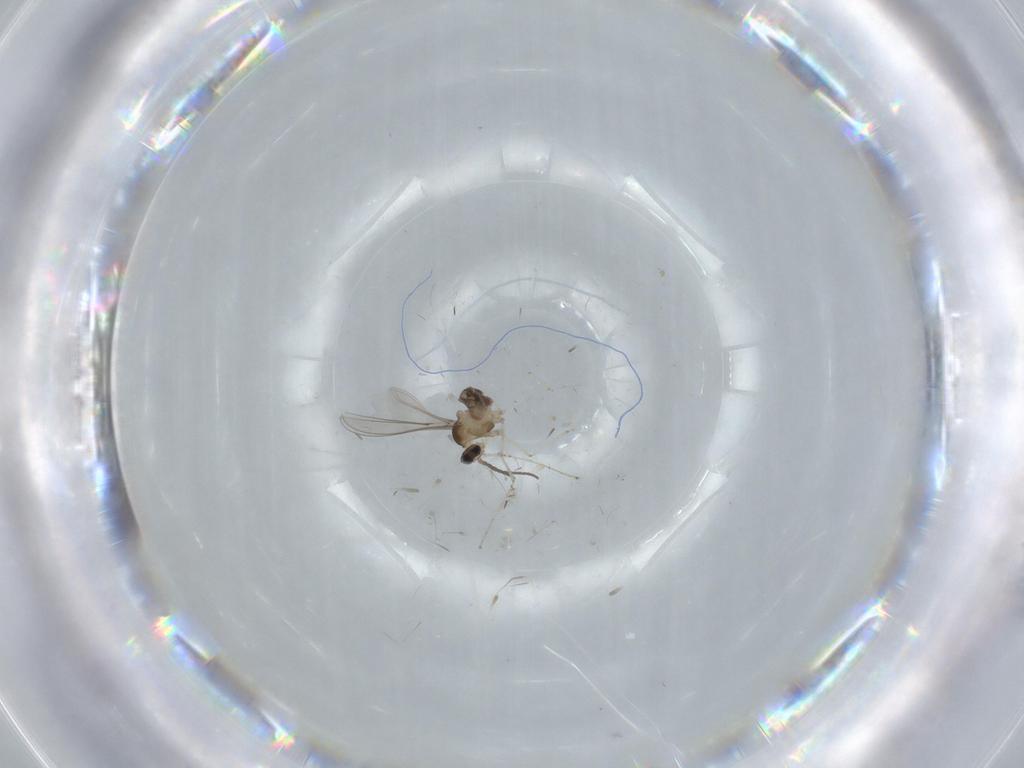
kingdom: Animalia
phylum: Arthropoda
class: Insecta
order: Diptera
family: Cecidomyiidae
